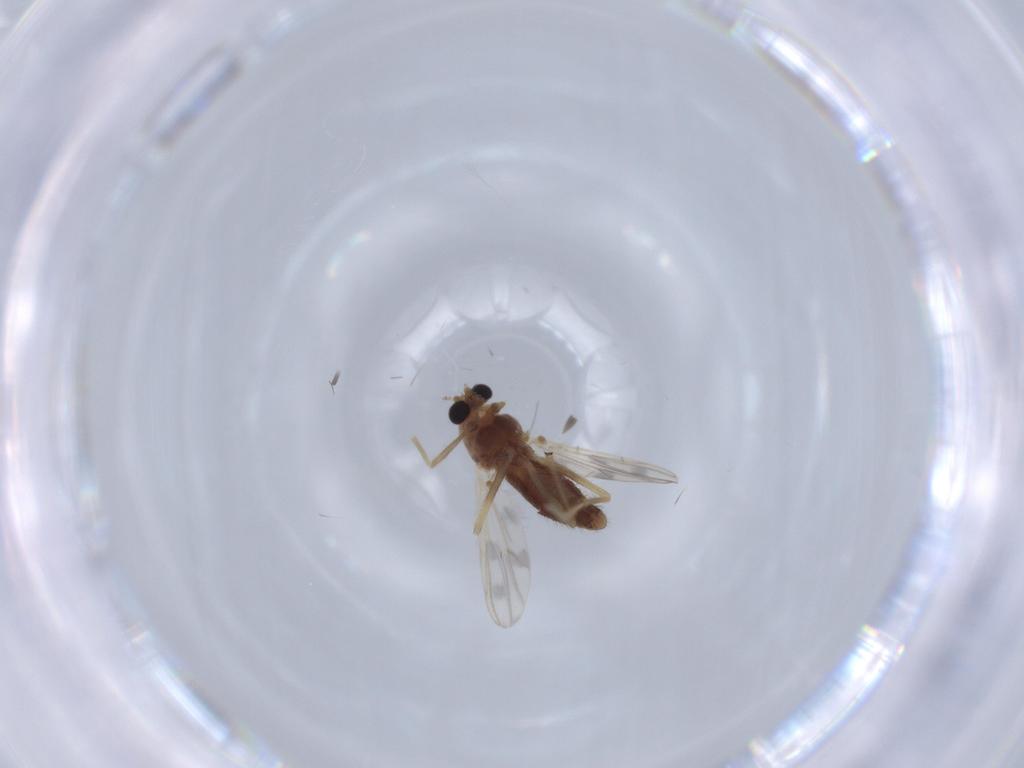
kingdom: Animalia
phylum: Arthropoda
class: Insecta
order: Diptera
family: Chironomidae
